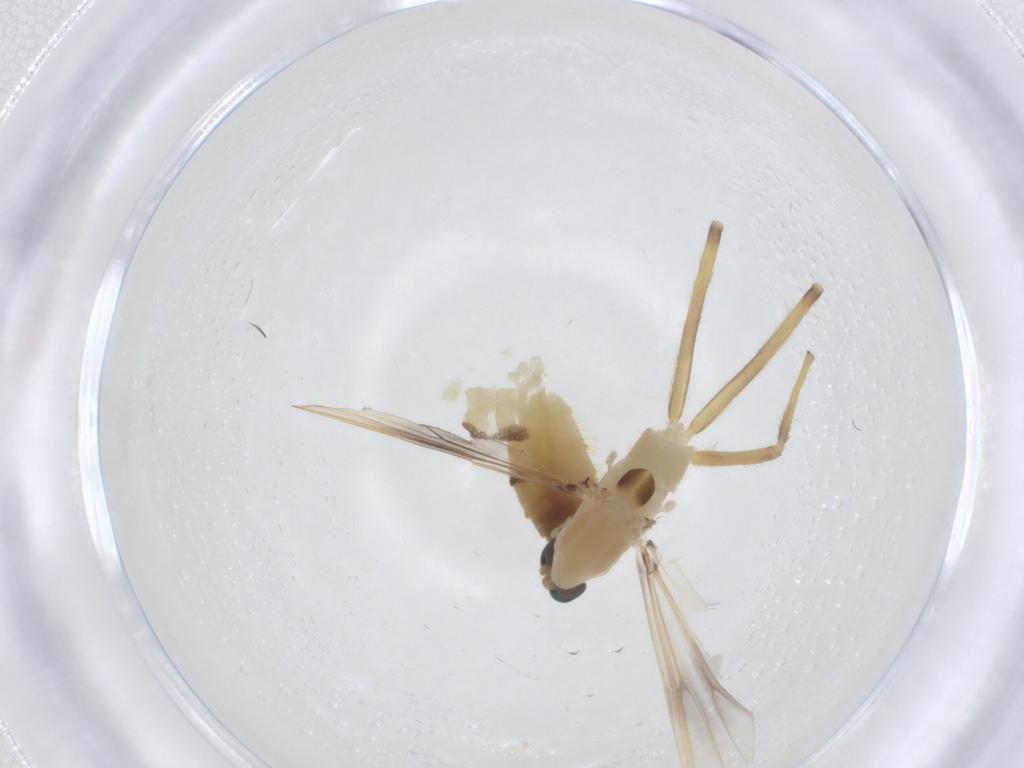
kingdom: Animalia
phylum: Arthropoda
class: Insecta
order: Diptera
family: Chironomidae
